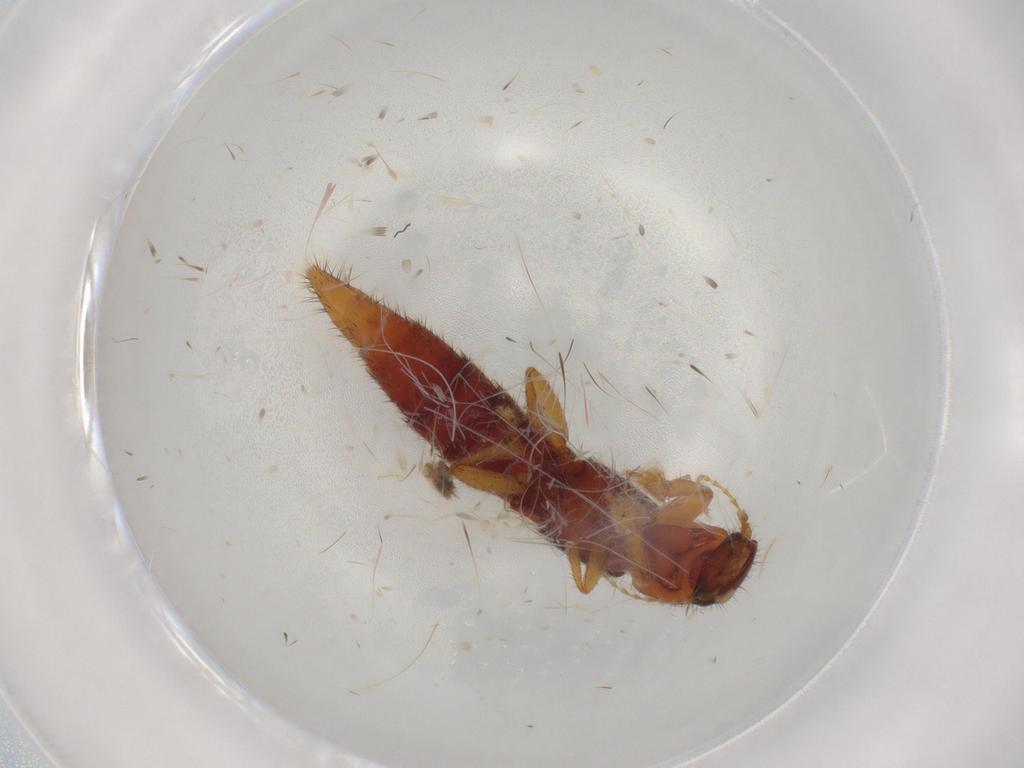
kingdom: Animalia
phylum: Arthropoda
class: Insecta
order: Coleoptera
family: Staphylinidae
